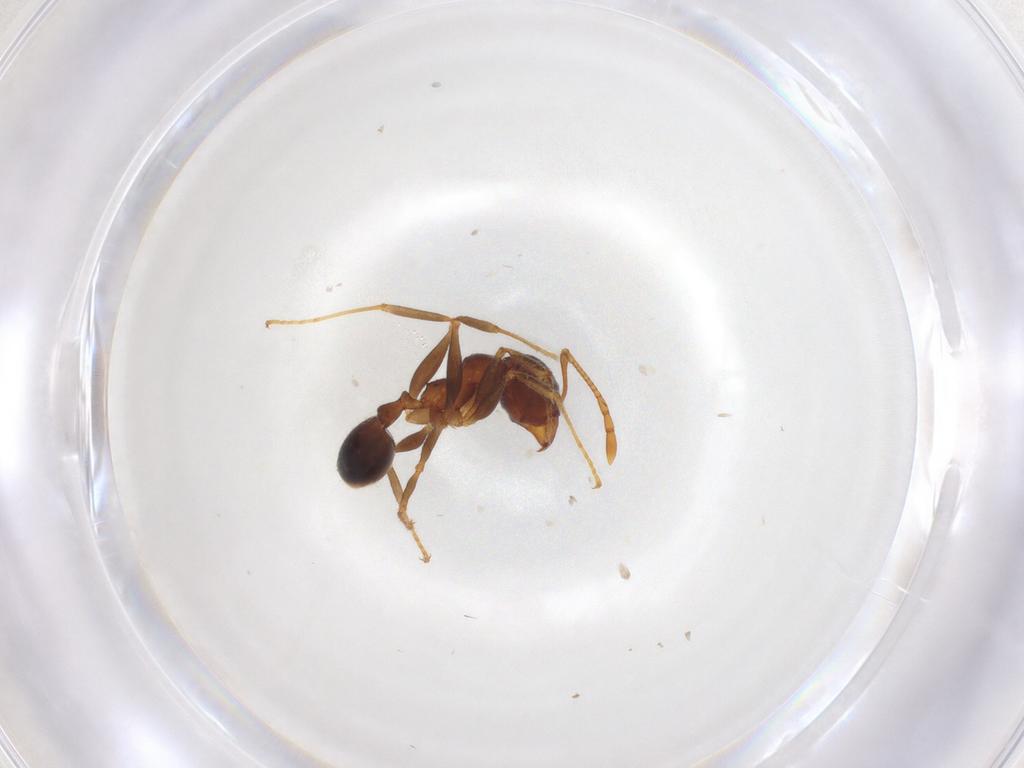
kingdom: Animalia
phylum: Arthropoda
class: Insecta
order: Hymenoptera
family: Formicidae
